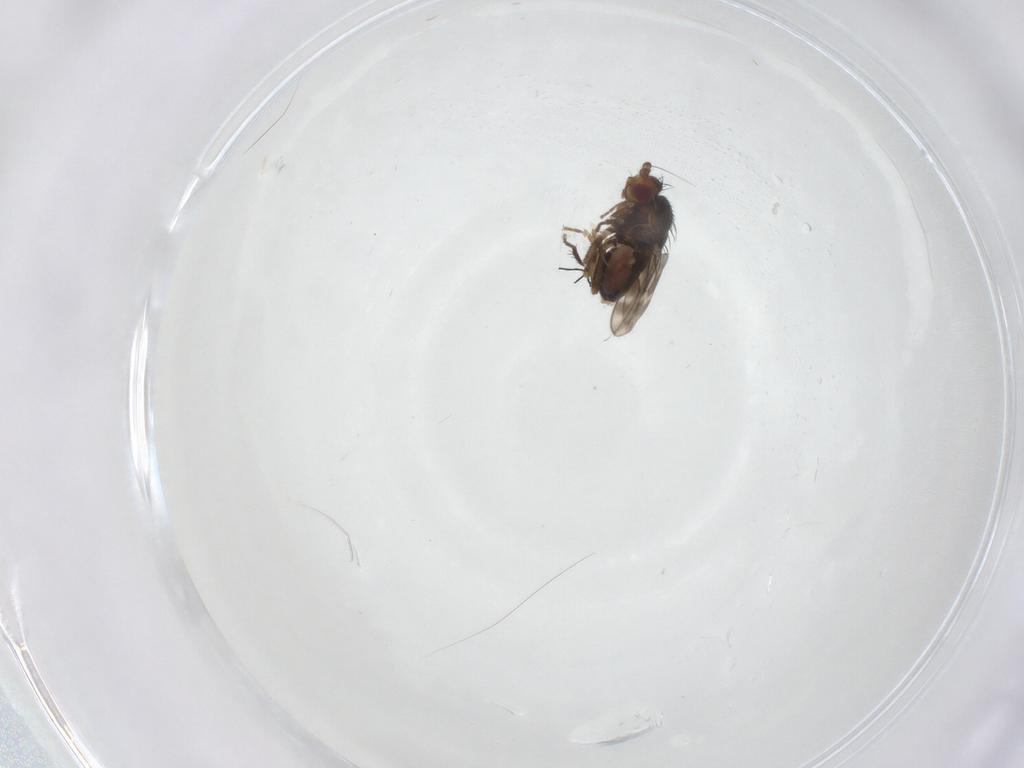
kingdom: Animalia
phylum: Arthropoda
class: Insecta
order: Diptera
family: Sphaeroceridae
